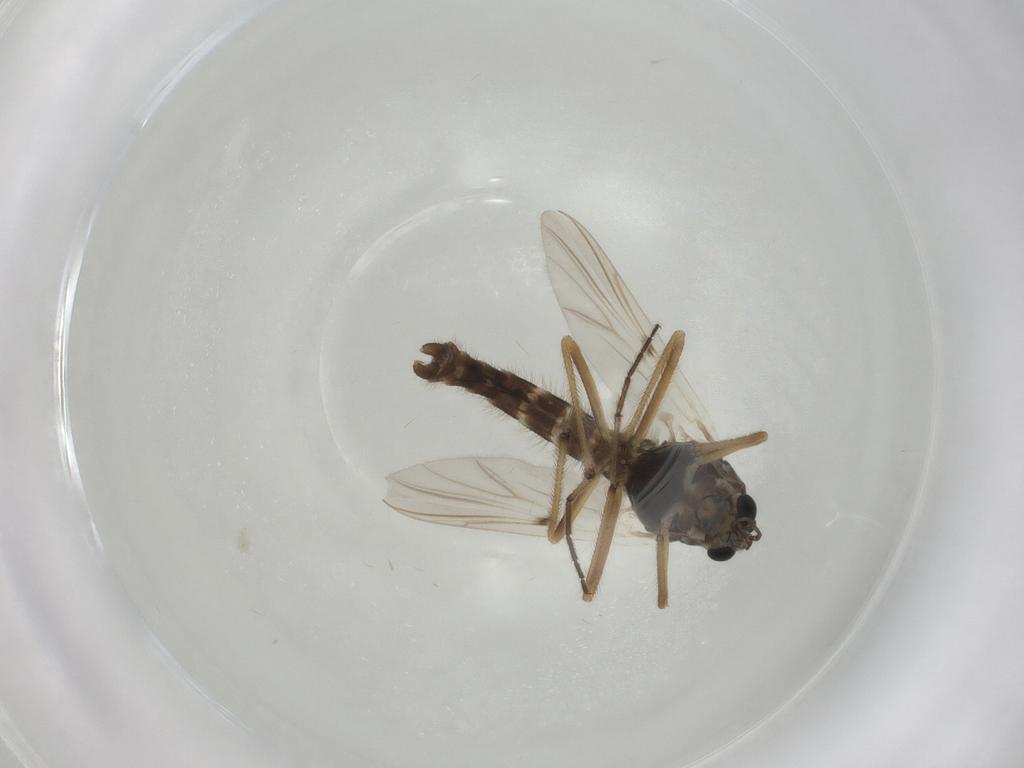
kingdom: Animalia
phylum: Arthropoda
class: Insecta
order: Diptera
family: Chironomidae
